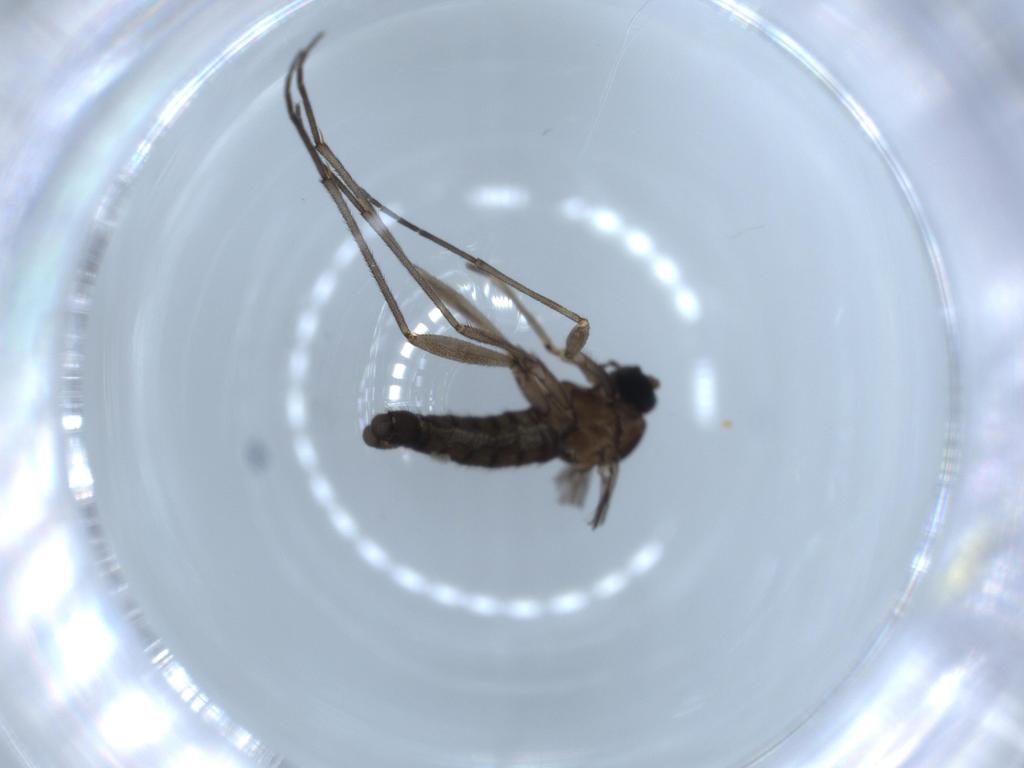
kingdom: Animalia
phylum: Arthropoda
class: Insecta
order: Diptera
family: Sciaridae
